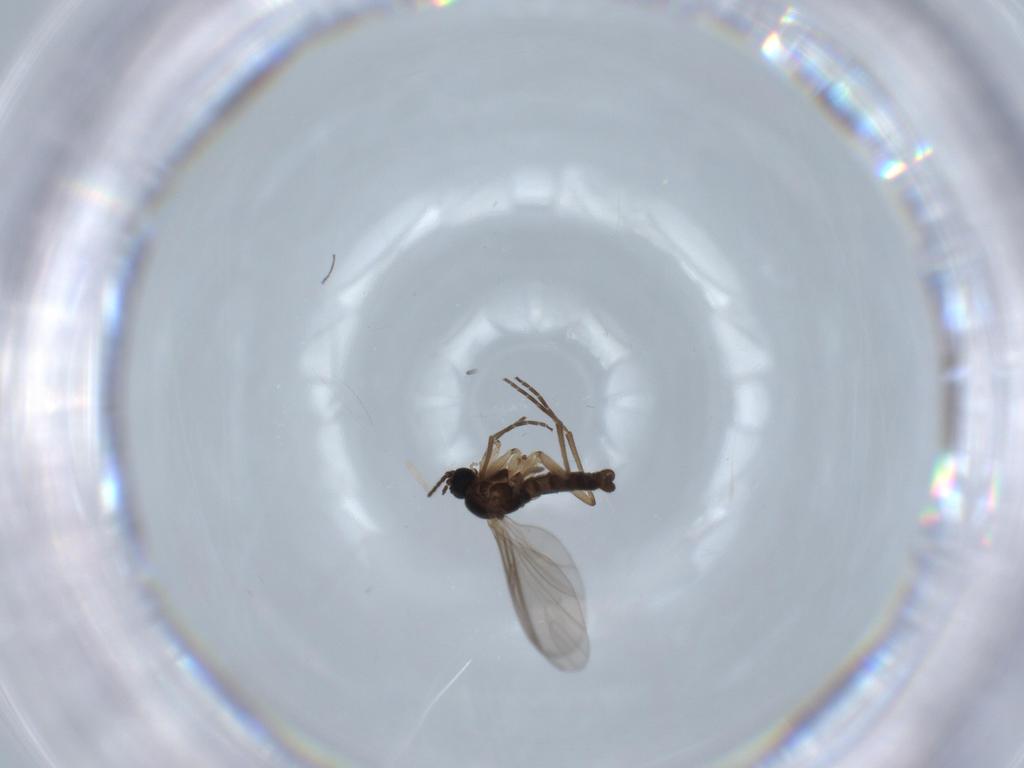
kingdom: Animalia
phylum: Arthropoda
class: Insecta
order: Diptera
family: Sciaridae
